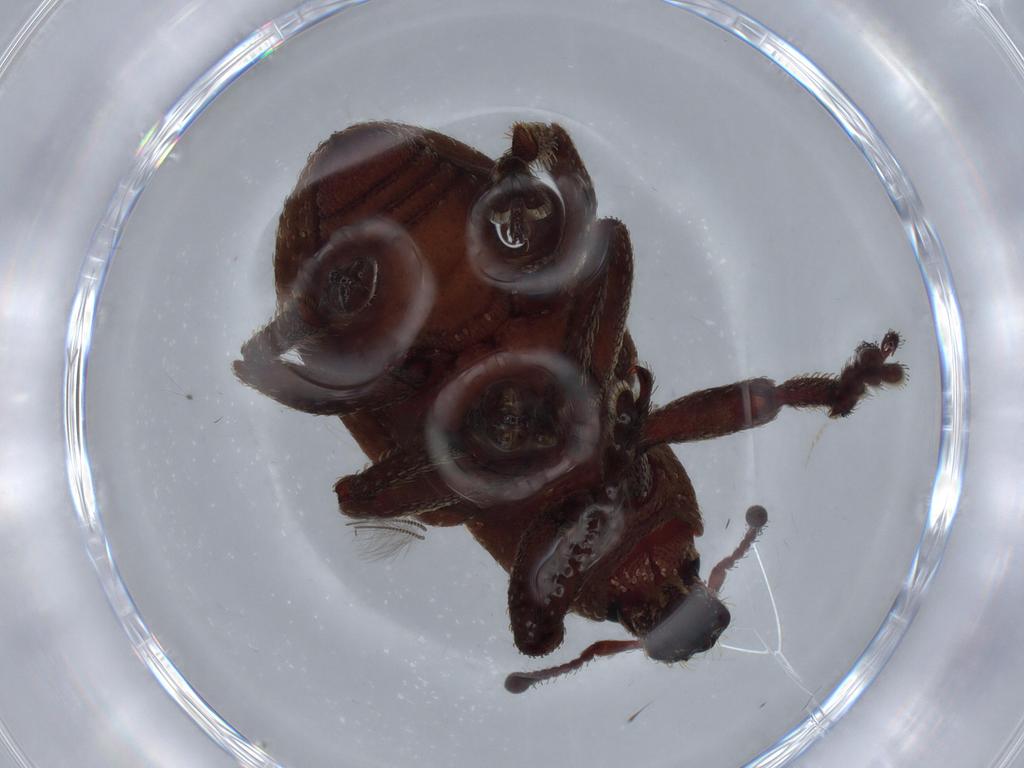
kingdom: Animalia
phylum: Arthropoda
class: Insecta
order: Coleoptera
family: Curculionidae
